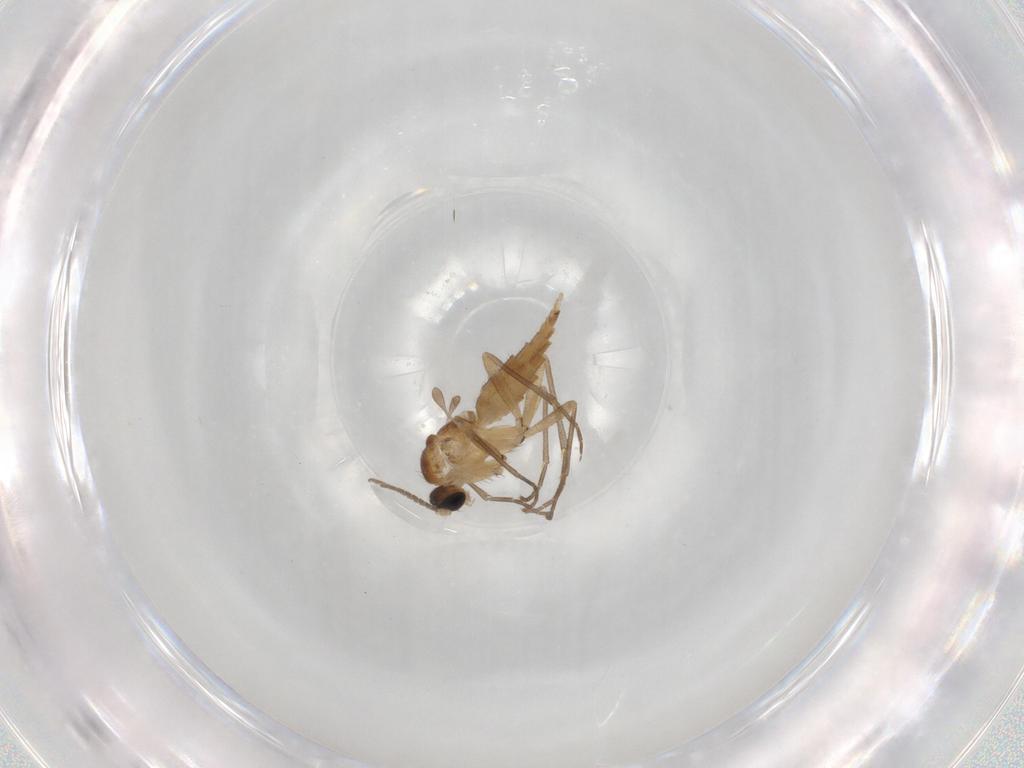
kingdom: Animalia
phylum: Arthropoda
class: Insecta
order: Diptera
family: Sciaridae
